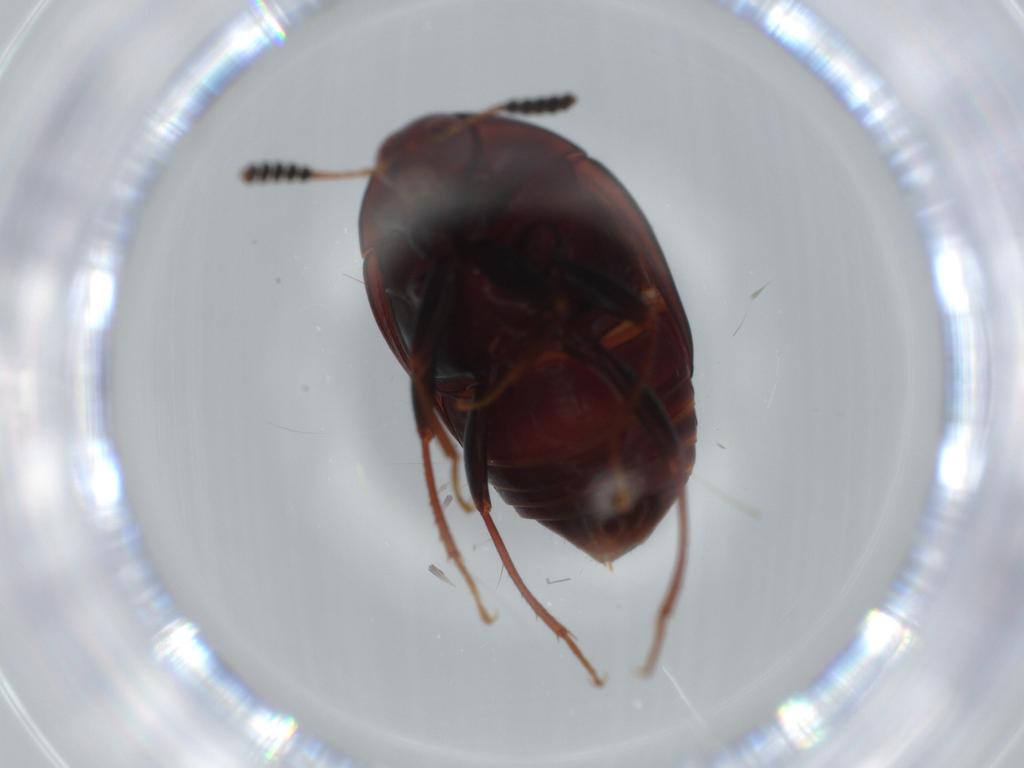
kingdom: Animalia
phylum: Arthropoda
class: Insecta
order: Coleoptera
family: Staphylinidae
